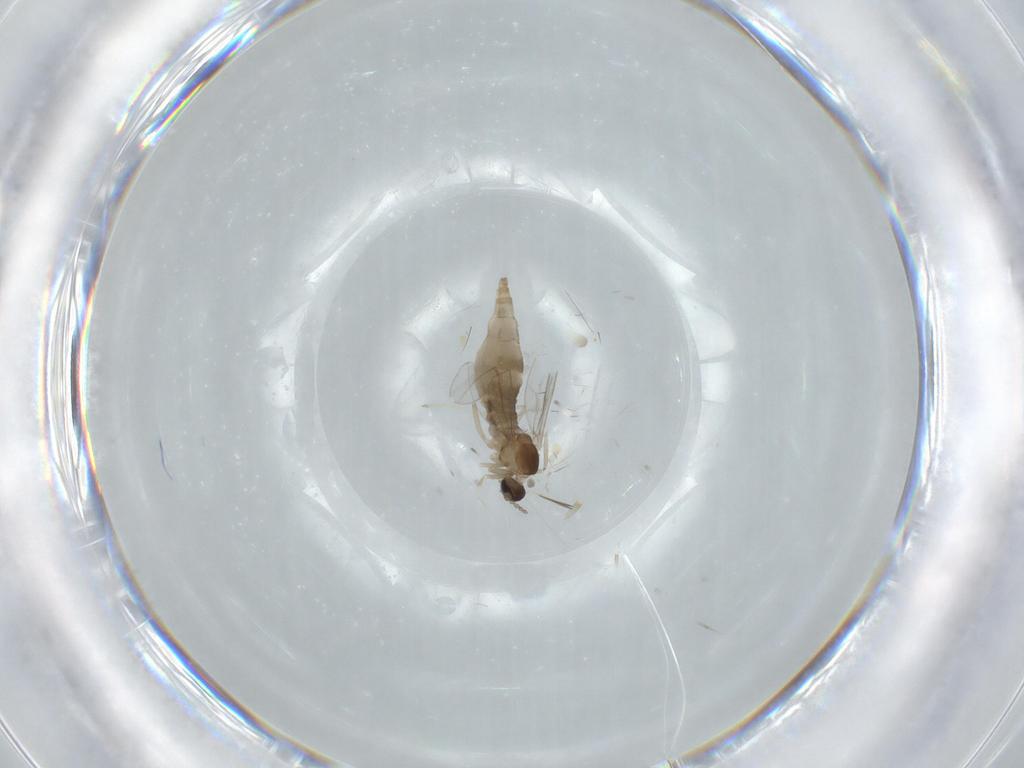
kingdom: Animalia
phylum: Arthropoda
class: Insecta
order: Diptera
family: Cecidomyiidae
